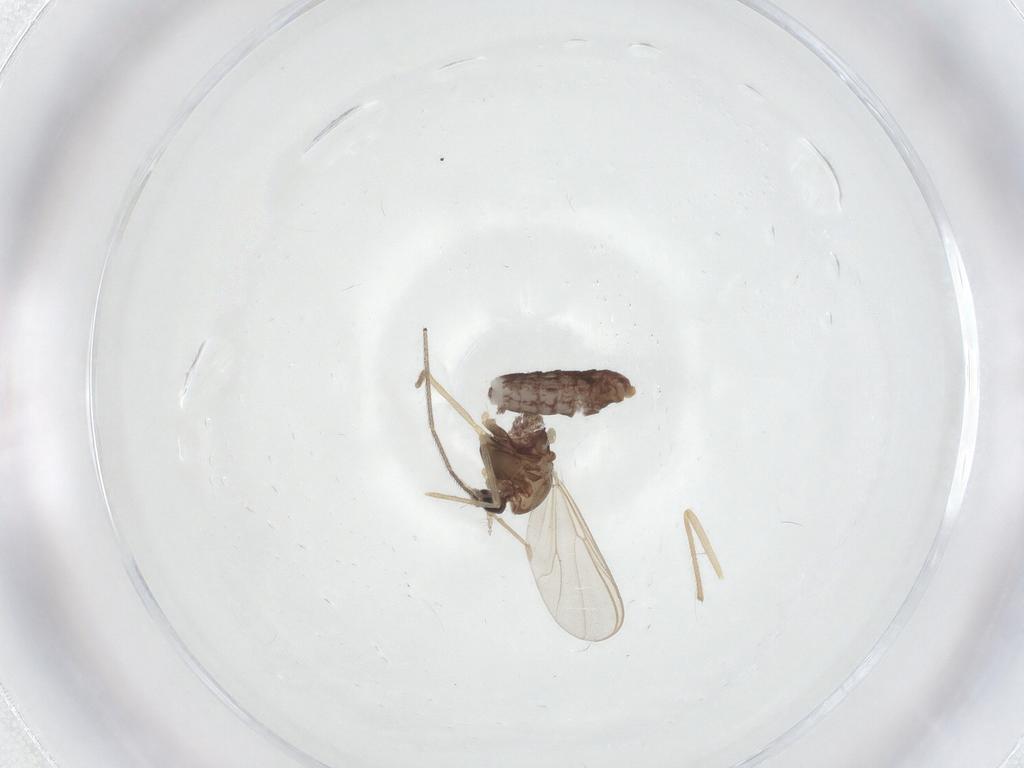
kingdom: Animalia
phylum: Arthropoda
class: Insecta
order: Diptera
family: Chironomidae
